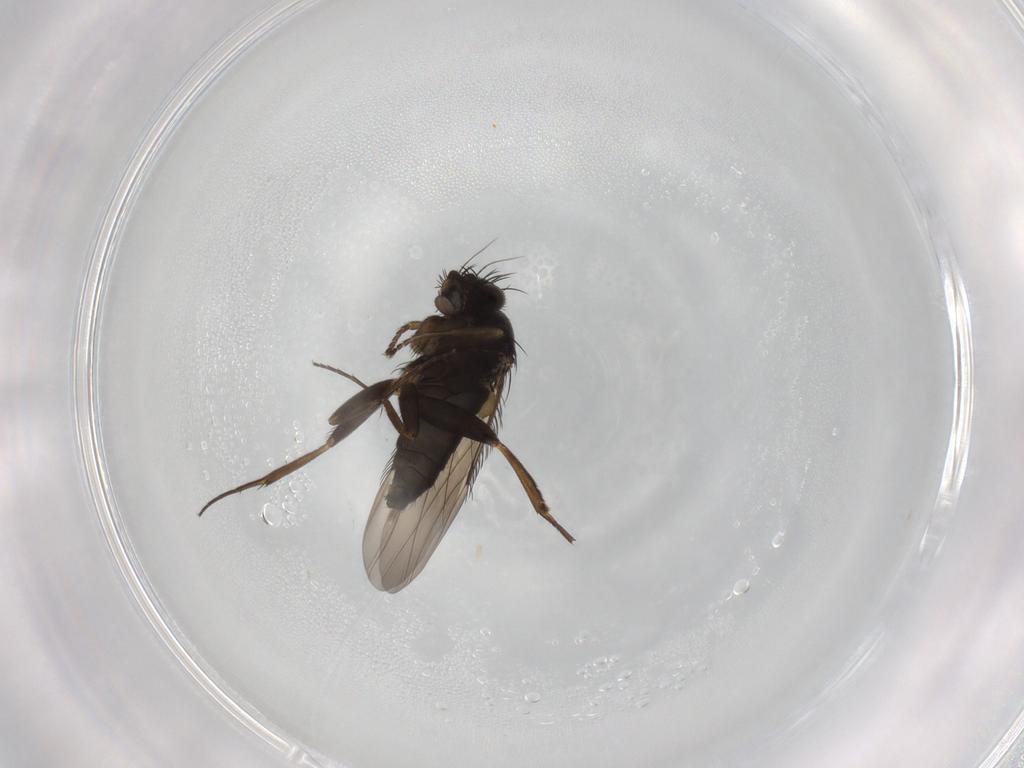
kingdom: Animalia
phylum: Arthropoda
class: Insecta
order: Diptera
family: Phoridae
